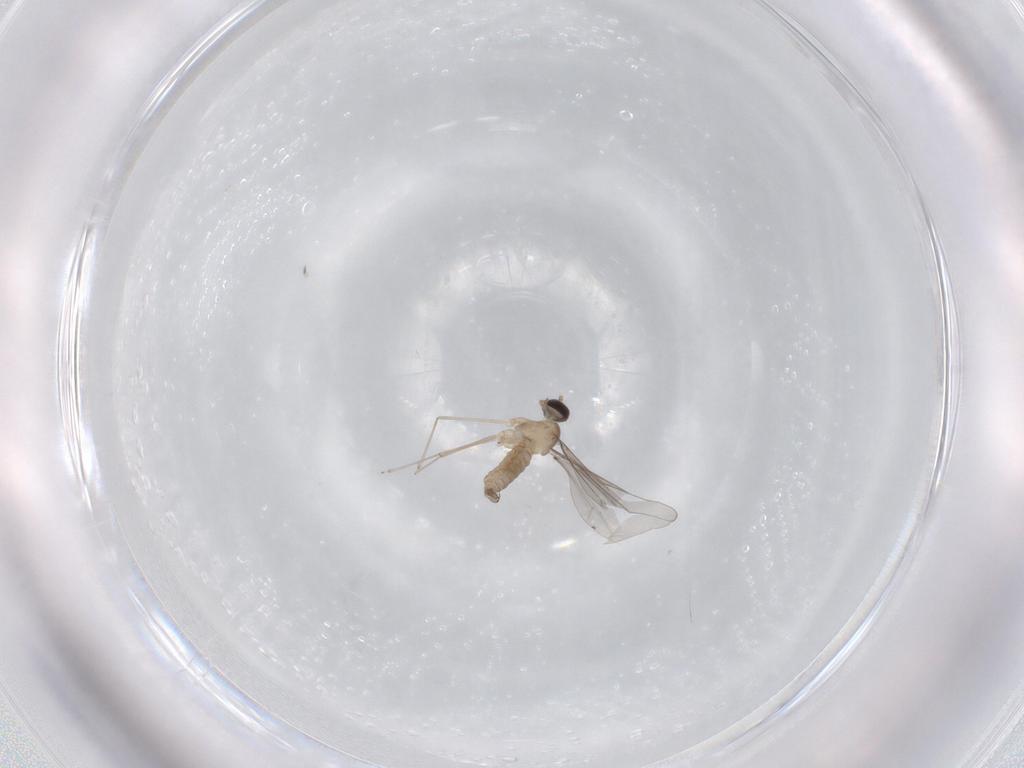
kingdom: Animalia
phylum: Arthropoda
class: Insecta
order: Diptera
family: Cecidomyiidae
